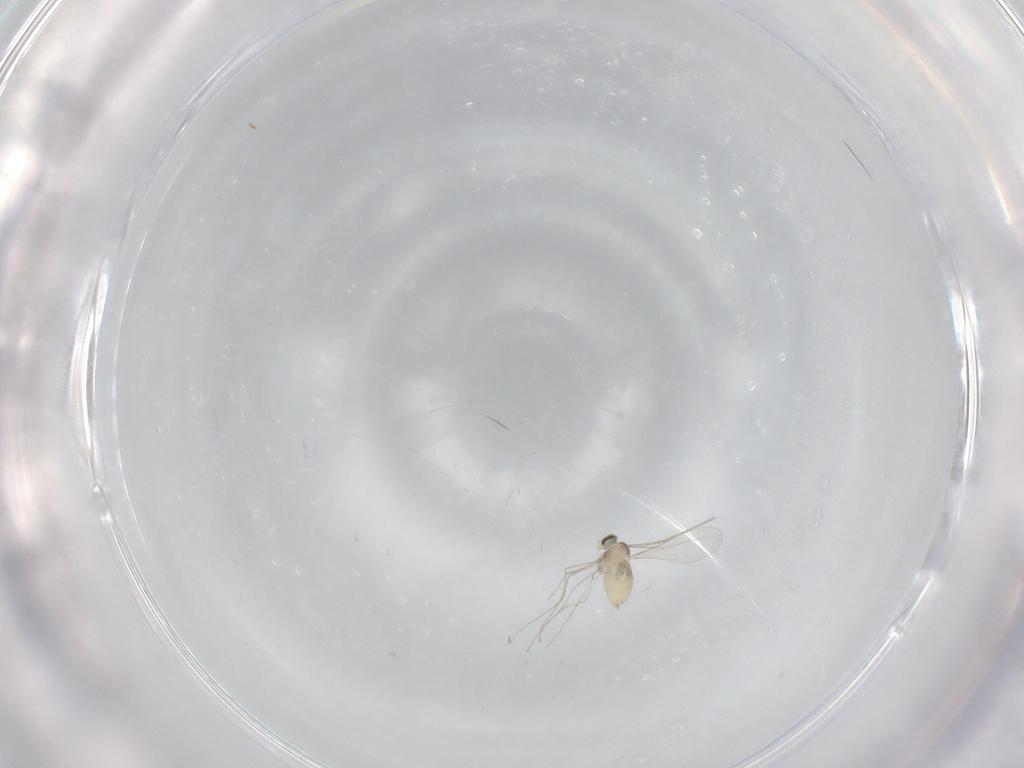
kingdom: Animalia
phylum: Arthropoda
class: Insecta
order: Diptera
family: Cecidomyiidae
